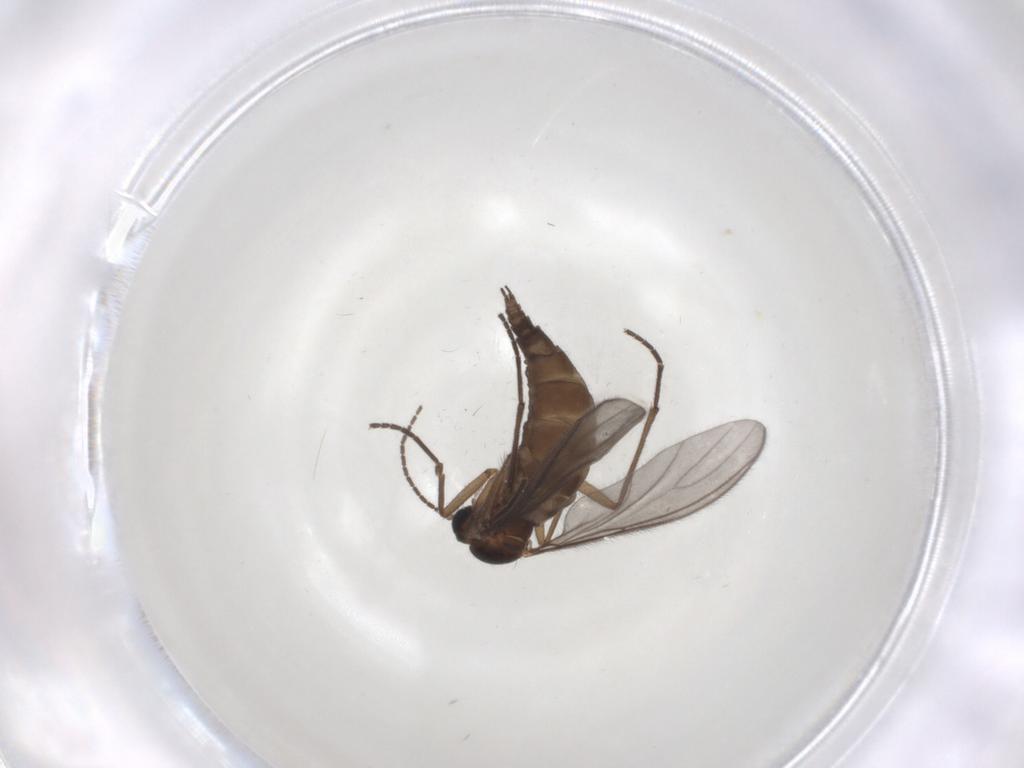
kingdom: Animalia
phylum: Arthropoda
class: Insecta
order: Diptera
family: Sciaridae
